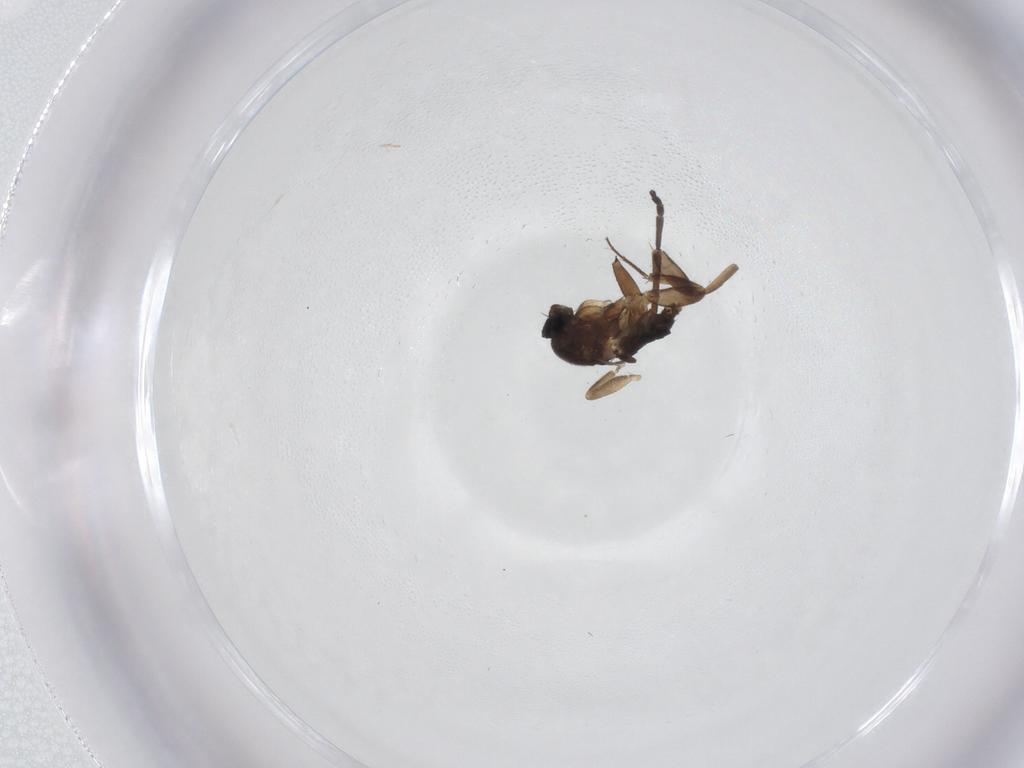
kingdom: Animalia
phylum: Arthropoda
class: Insecta
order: Diptera
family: Phoridae
